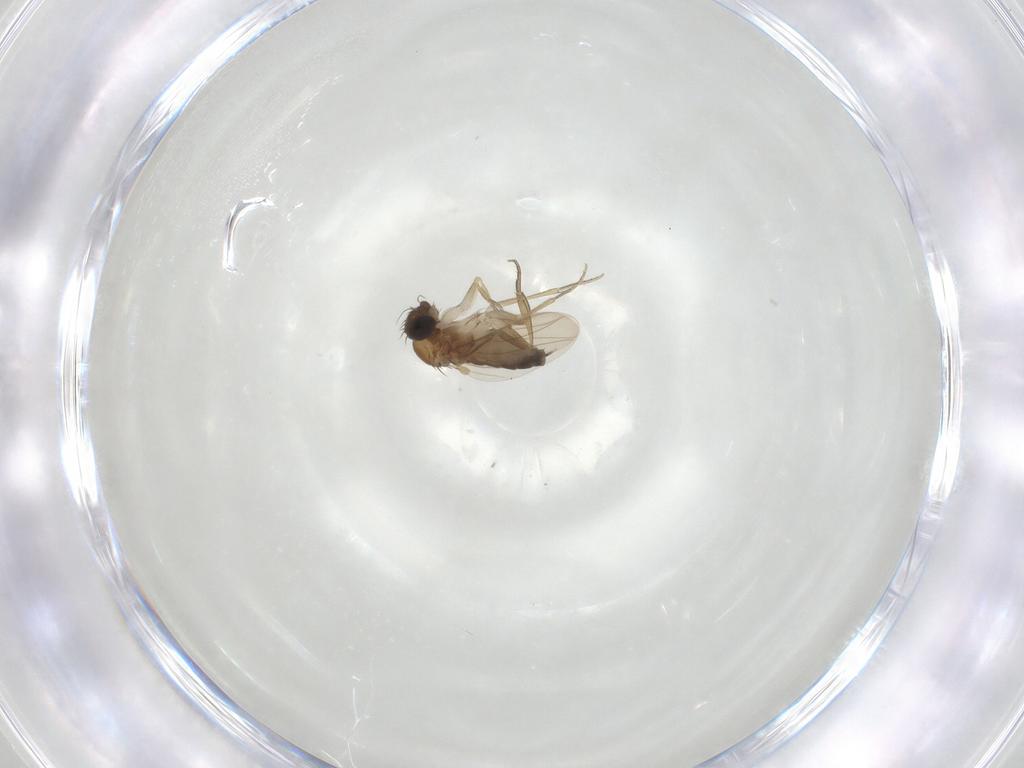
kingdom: Animalia
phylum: Arthropoda
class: Insecta
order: Diptera
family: Phoridae
